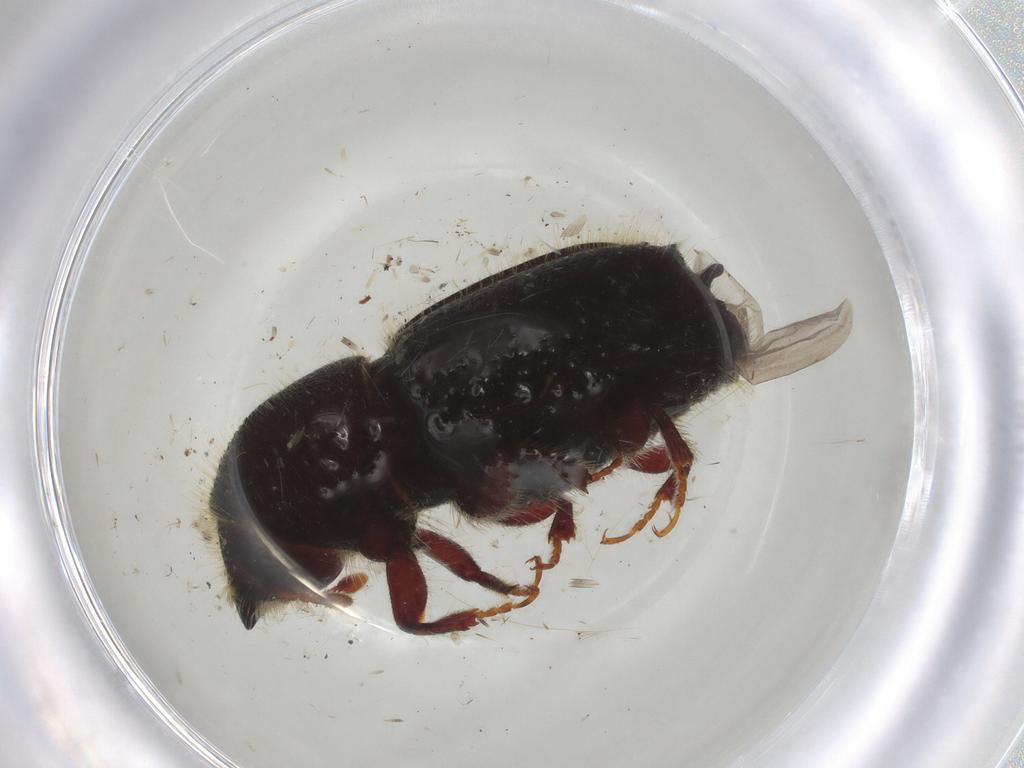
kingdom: Animalia
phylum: Arthropoda
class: Insecta
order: Coleoptera
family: Curculionidae
